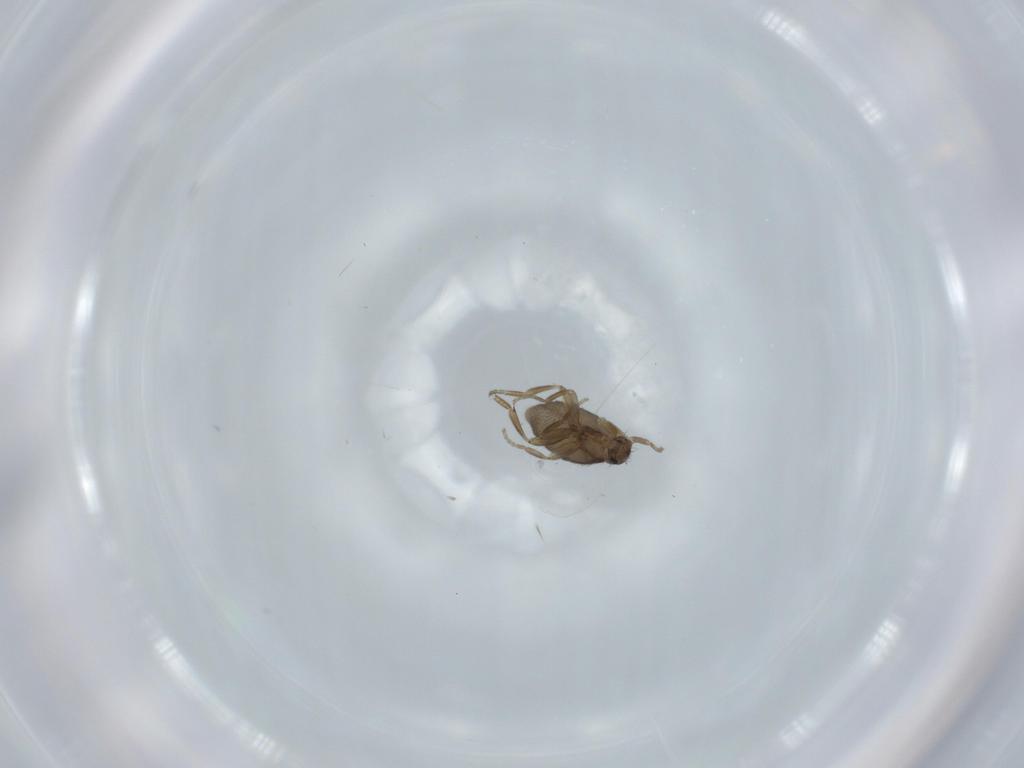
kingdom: Animalia
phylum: Arthropoda
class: Insecta
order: Diptera
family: Phoridae
